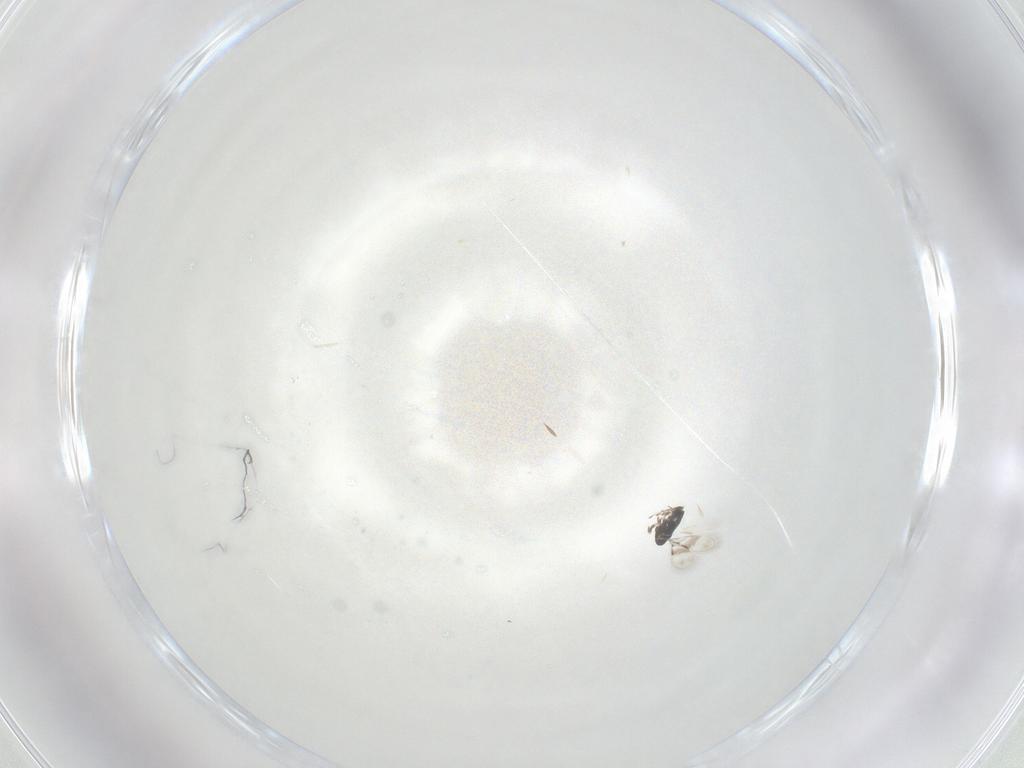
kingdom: Animalia
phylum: Arthropoda
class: Insecta
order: Hymenoptera
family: Azotidae
